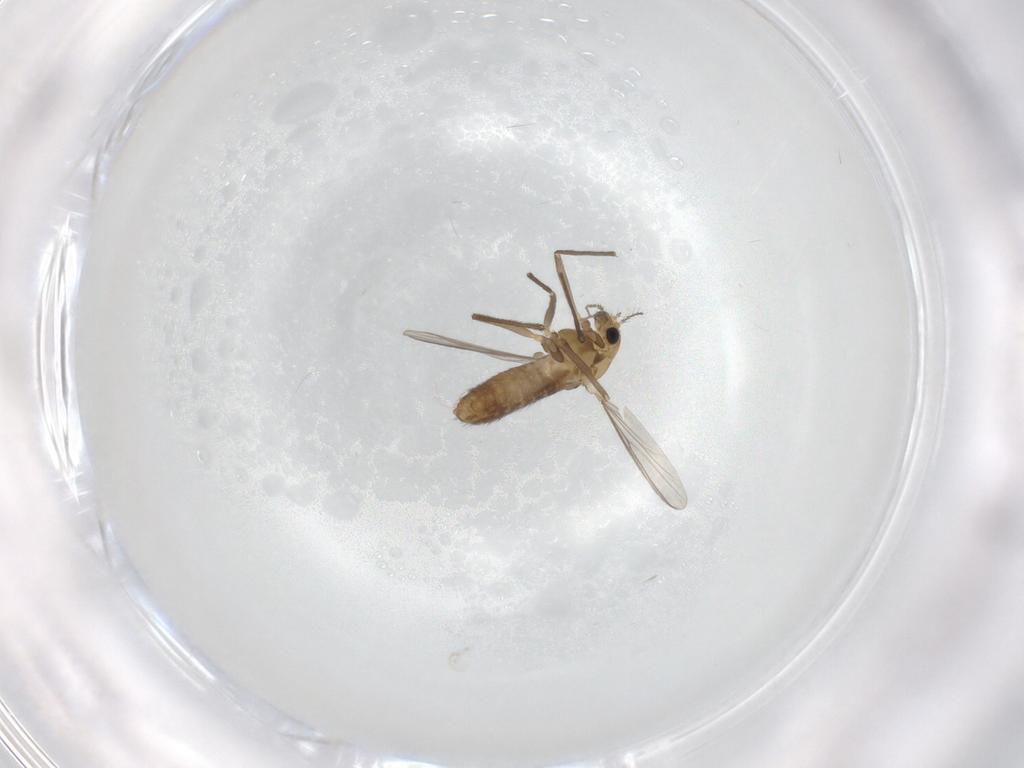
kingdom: Animalia
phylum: Arthropoda
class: Insecta
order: Diptera
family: Chironomidae
